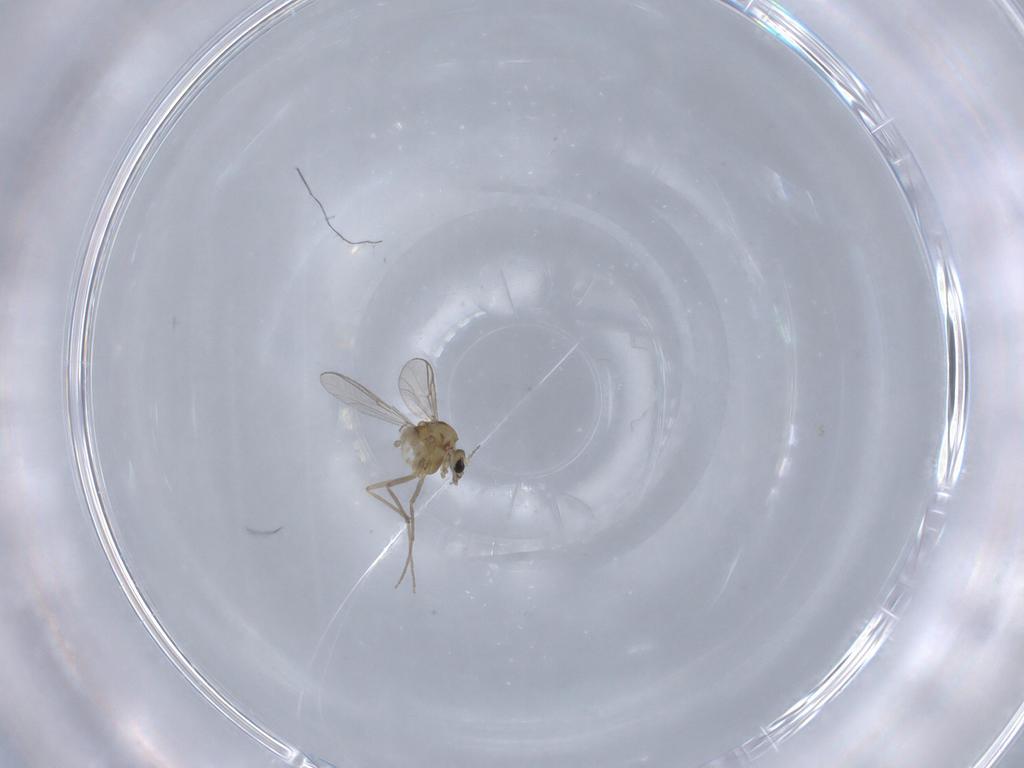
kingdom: Animalia
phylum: Arthropoda
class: Insecta
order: Diptera
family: Chironomidae
